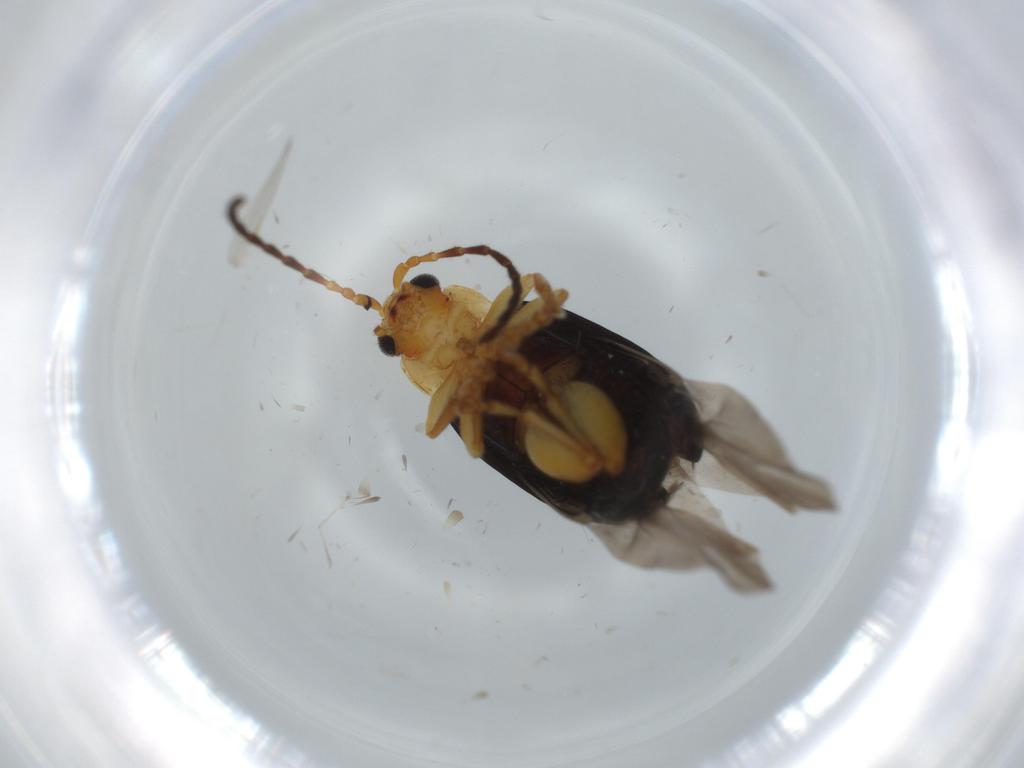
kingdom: Animalia
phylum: Arthropoda
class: Insecta
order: Coleoptera
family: Chrysomelidae
